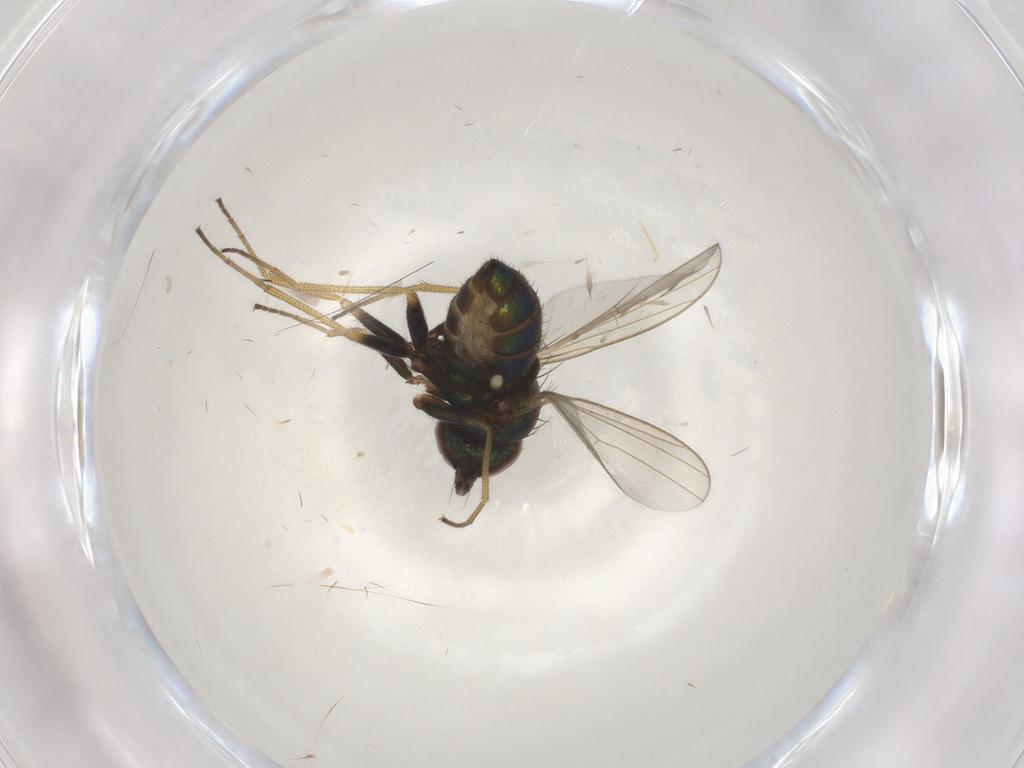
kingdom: Animalia
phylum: Arthropoda
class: Insecta
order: Diptera
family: Dolichopodidae
